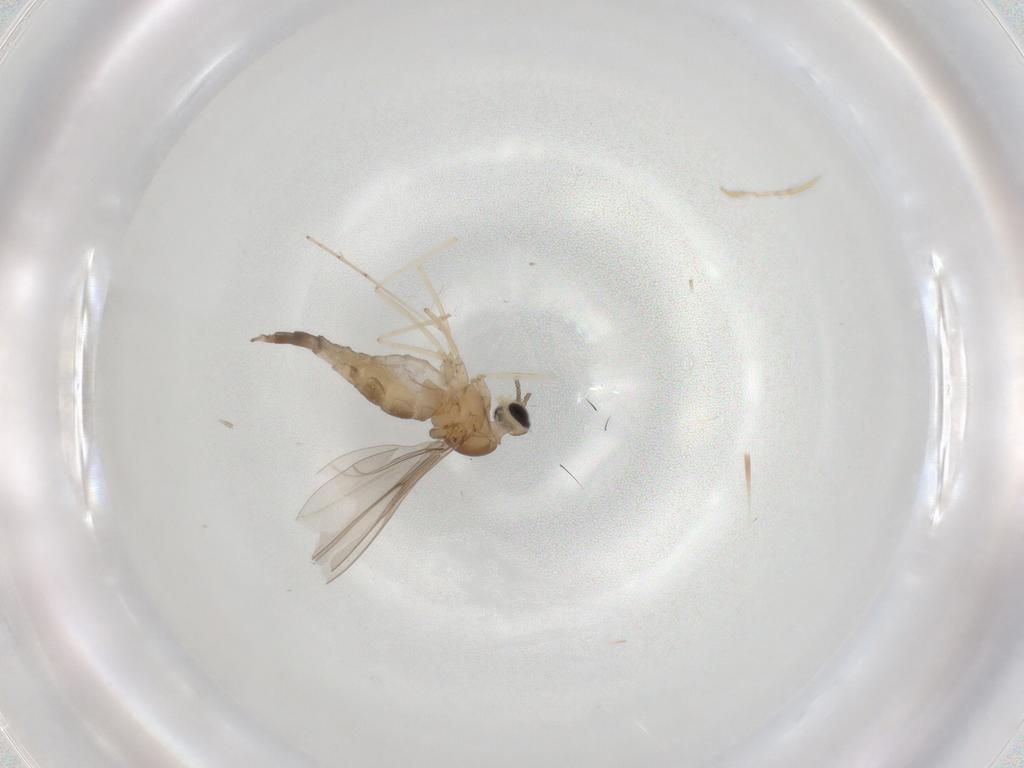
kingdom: Animalia
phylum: Arthropoda
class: Insecta
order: Diptera
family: Cecidomyiidae
